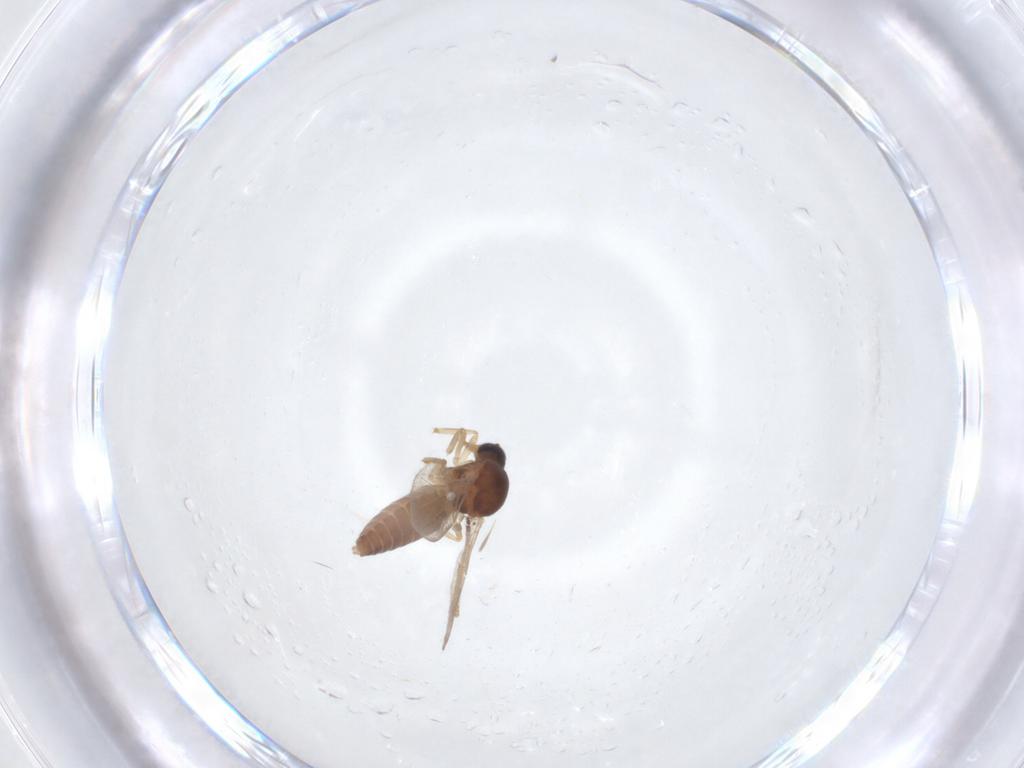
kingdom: Animalia
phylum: Arthropoda
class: Insecta
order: Diptera
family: Ceratopogonidae
